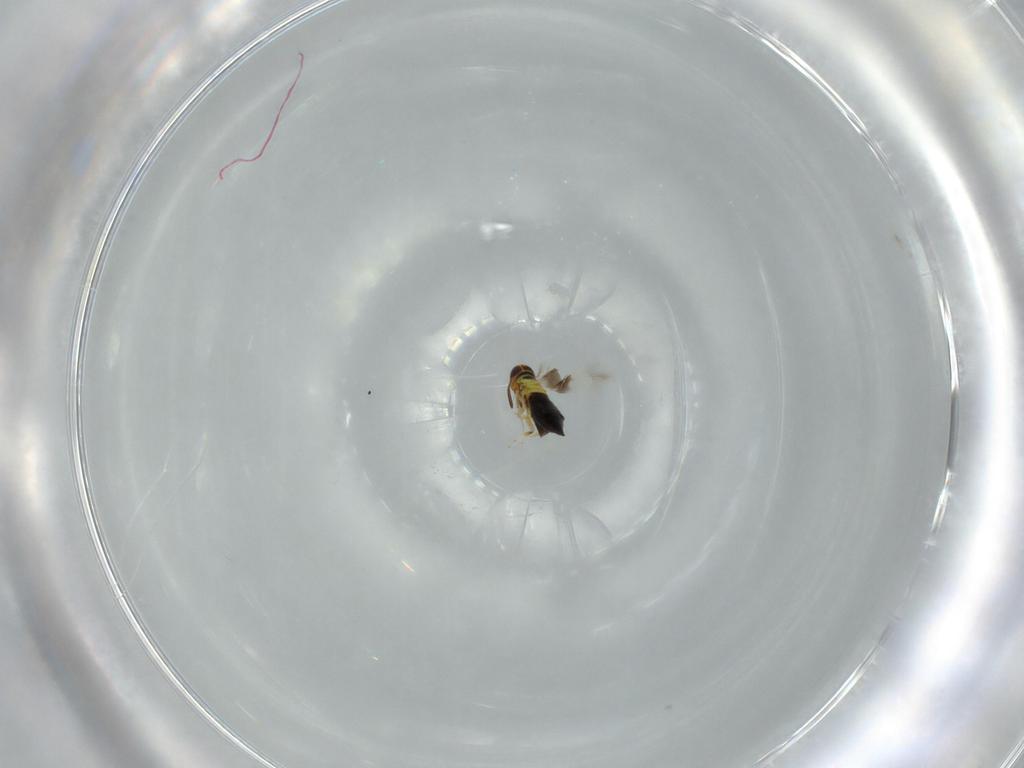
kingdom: Animalia
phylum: Arthropoda
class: Insecta
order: Hymenoptera
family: Signiphoridae
